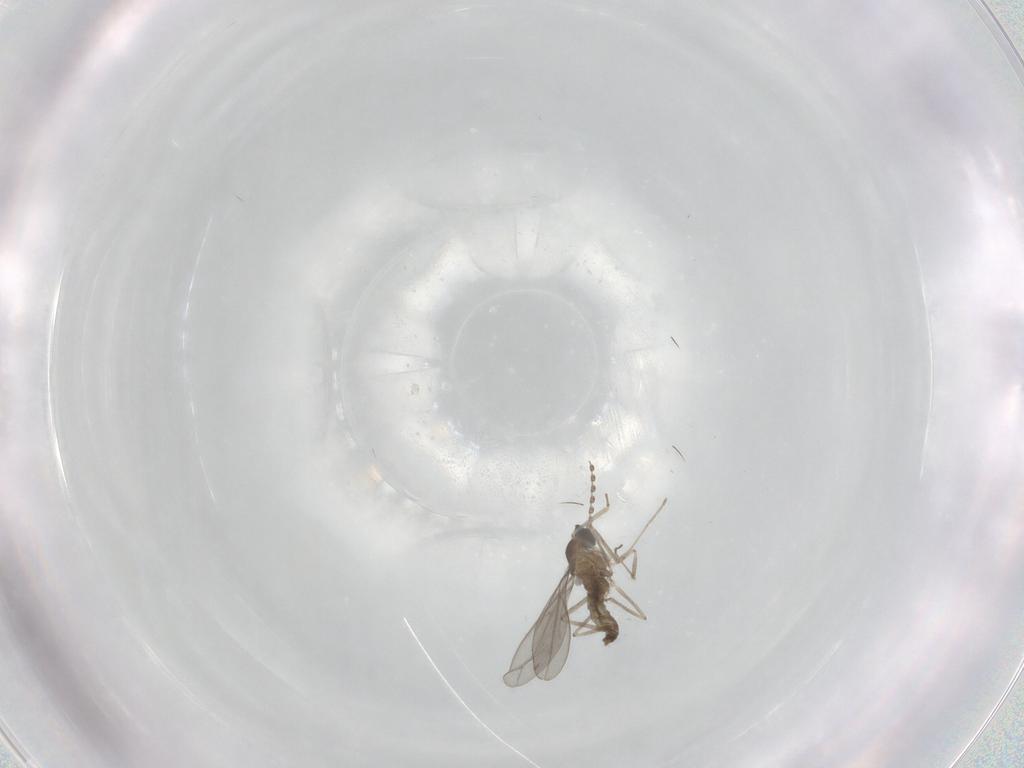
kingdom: Animalia
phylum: Arthropoda
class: Insecta
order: Diptera
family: Cecidomyiidae
